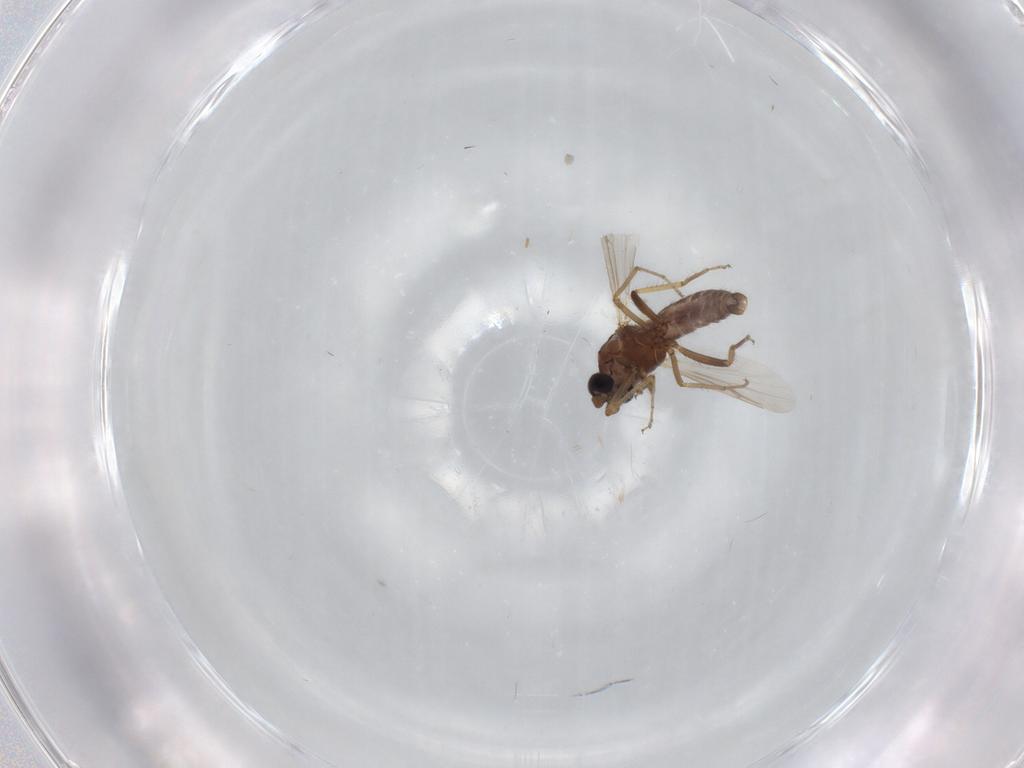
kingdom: Animalia
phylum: Arthropoda
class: Insecta
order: Diptera
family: Ceratopogonidae
